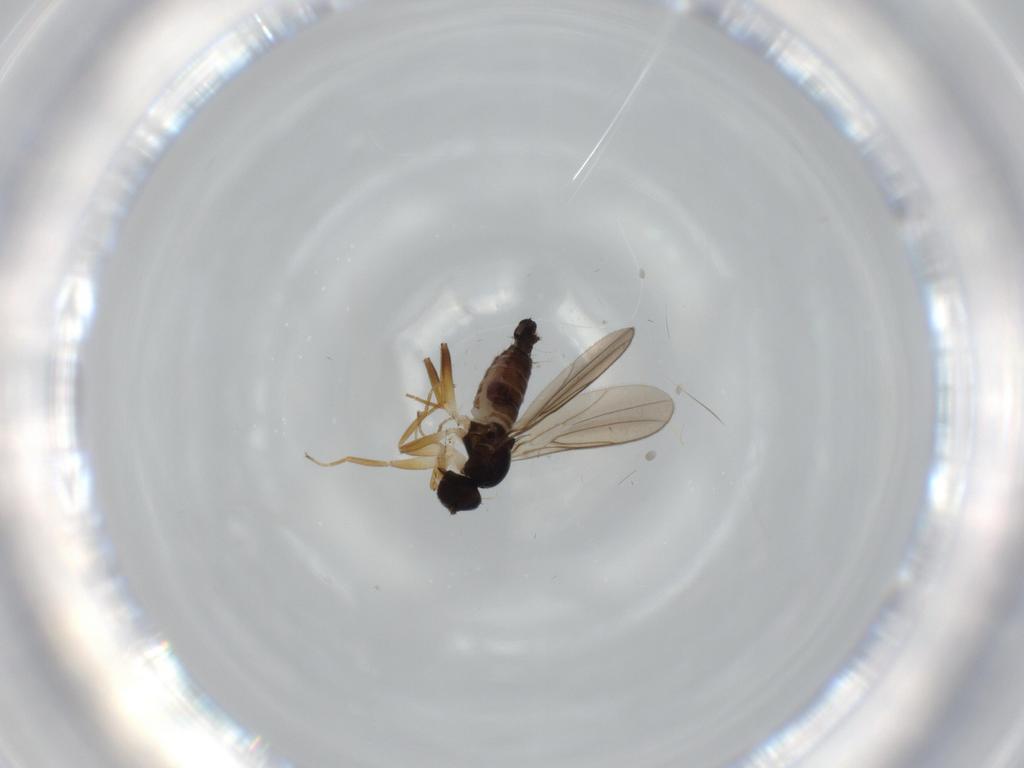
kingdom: Animalia
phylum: Arthropoda
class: Insecta
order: Diptera
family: Hybotidae
